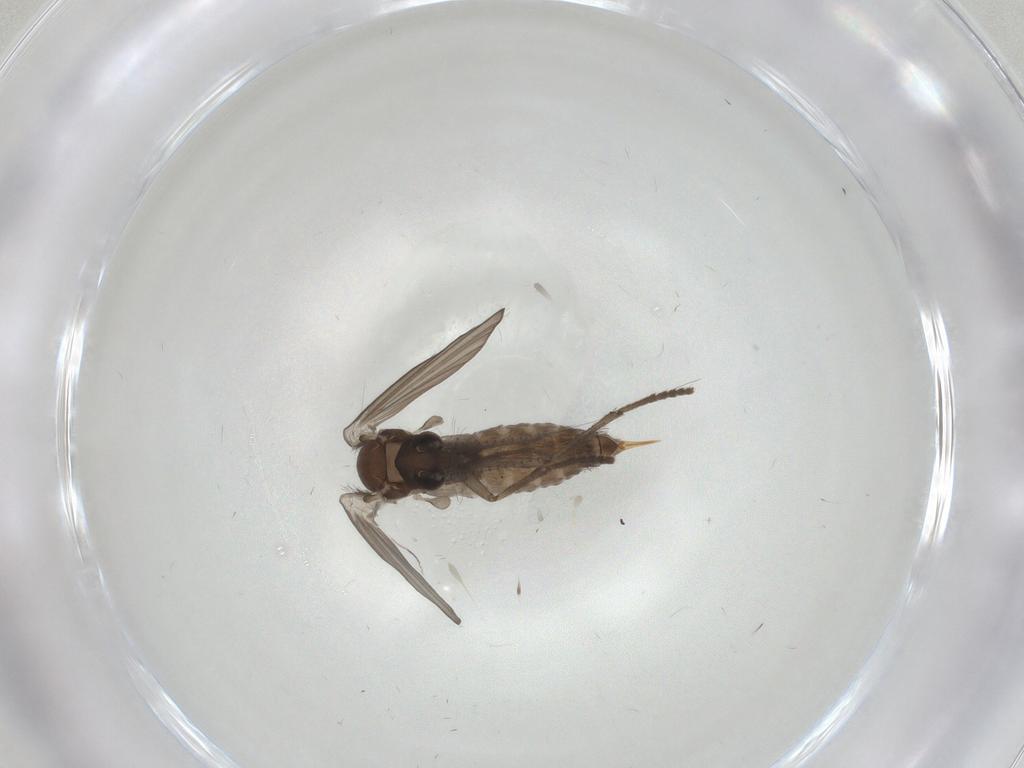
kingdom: Animalia
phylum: Arthropoda
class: Insecta
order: Diptera
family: Psychodidae
